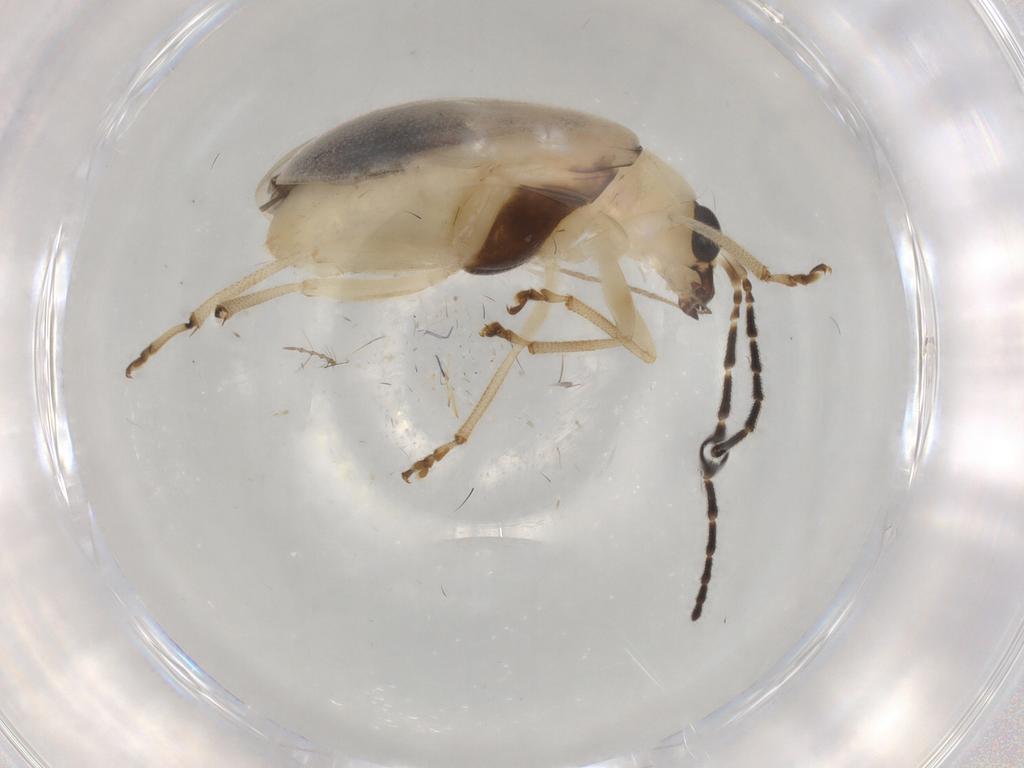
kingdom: Animalia
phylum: Arthropoda
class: Insecta
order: Coleoptera
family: Chrysomelidae
